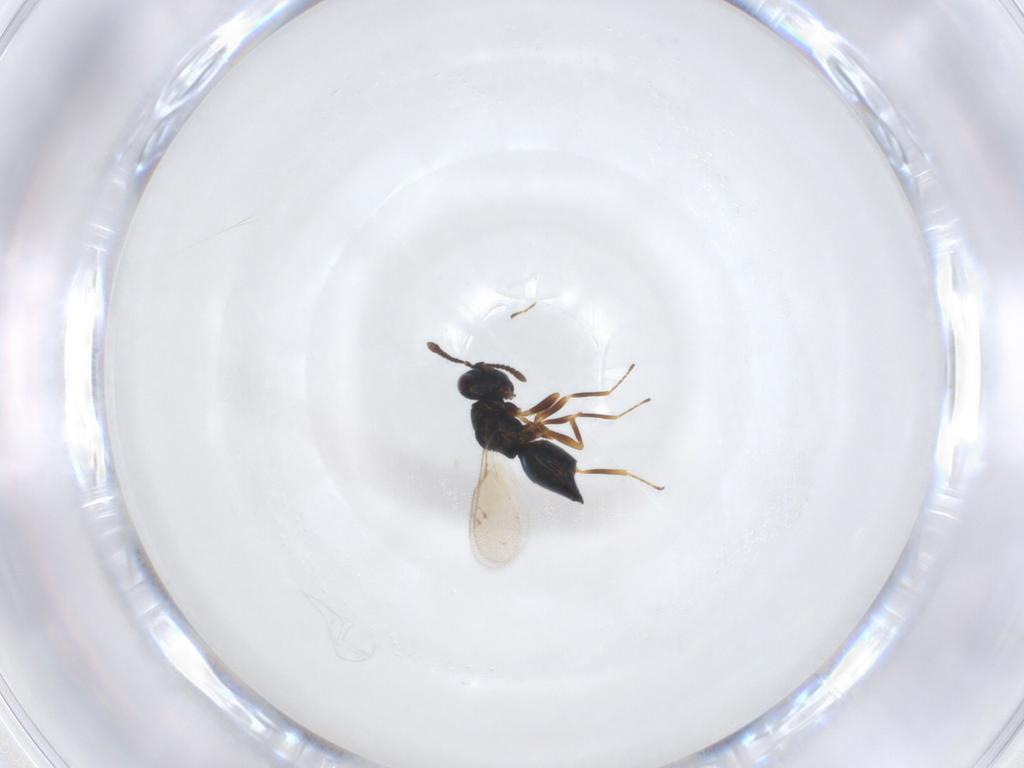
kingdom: Animalia
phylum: Arthropoda
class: Insecta
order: Hymenoptera
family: Pteromalidae
